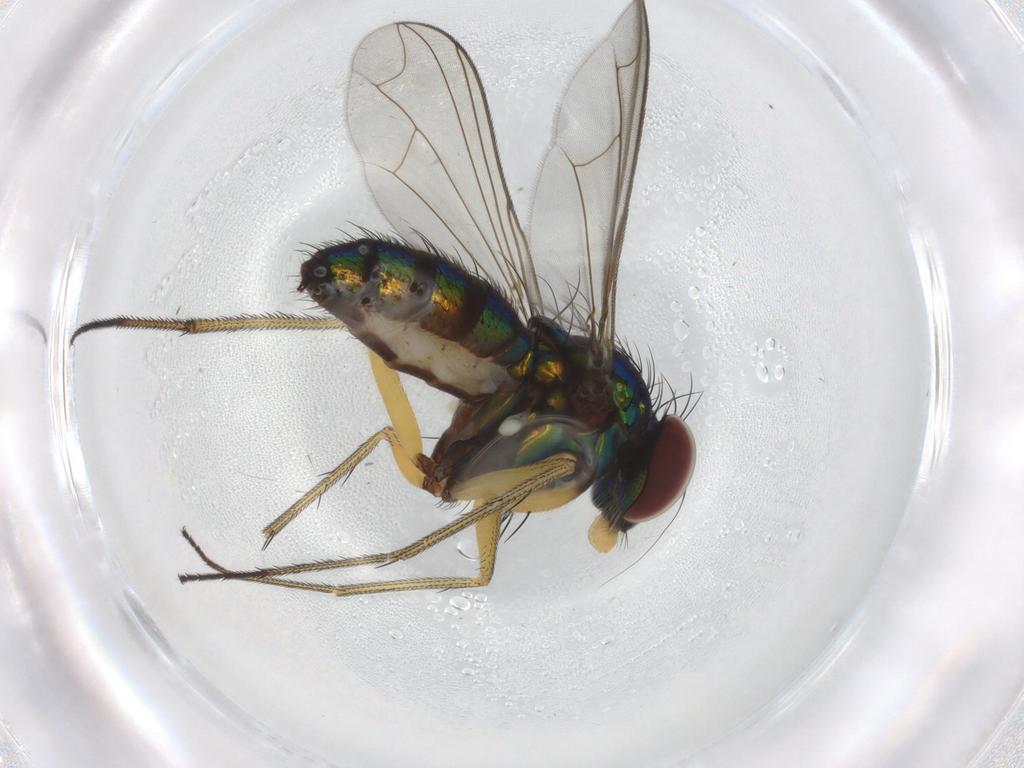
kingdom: Animalia
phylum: Arthropoda
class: Insecta
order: Diptera
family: Dolichopodidae
